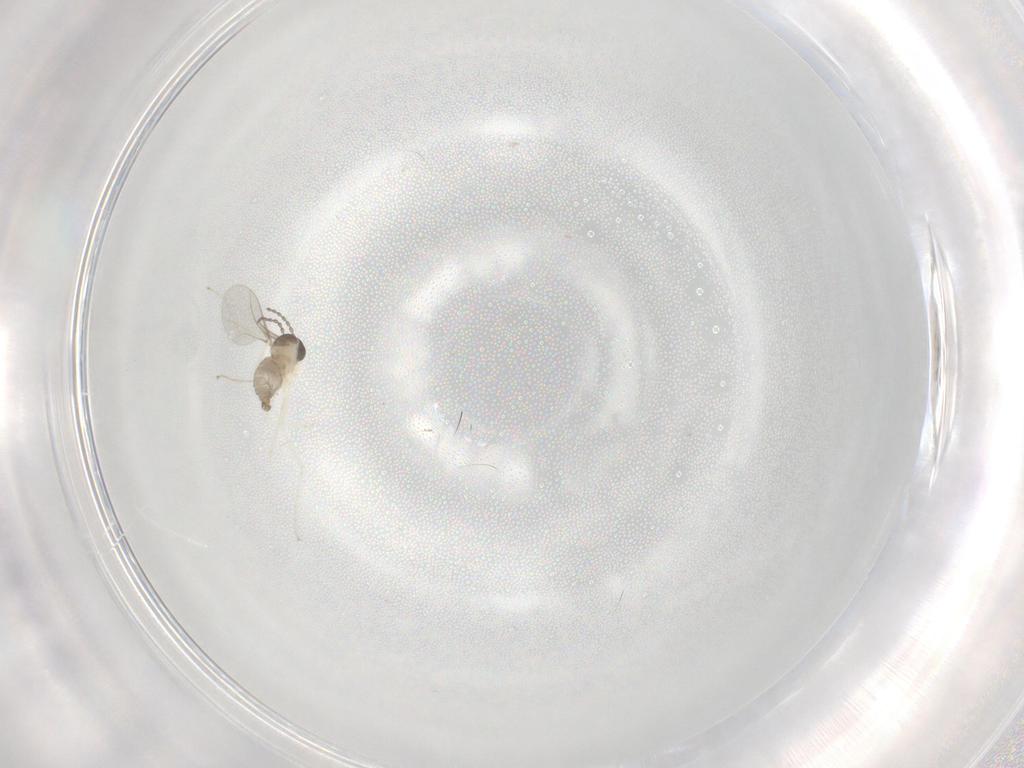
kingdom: Animalia
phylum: Arthropoda
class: Insecta
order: Diptera
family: Cecidomyiidae
